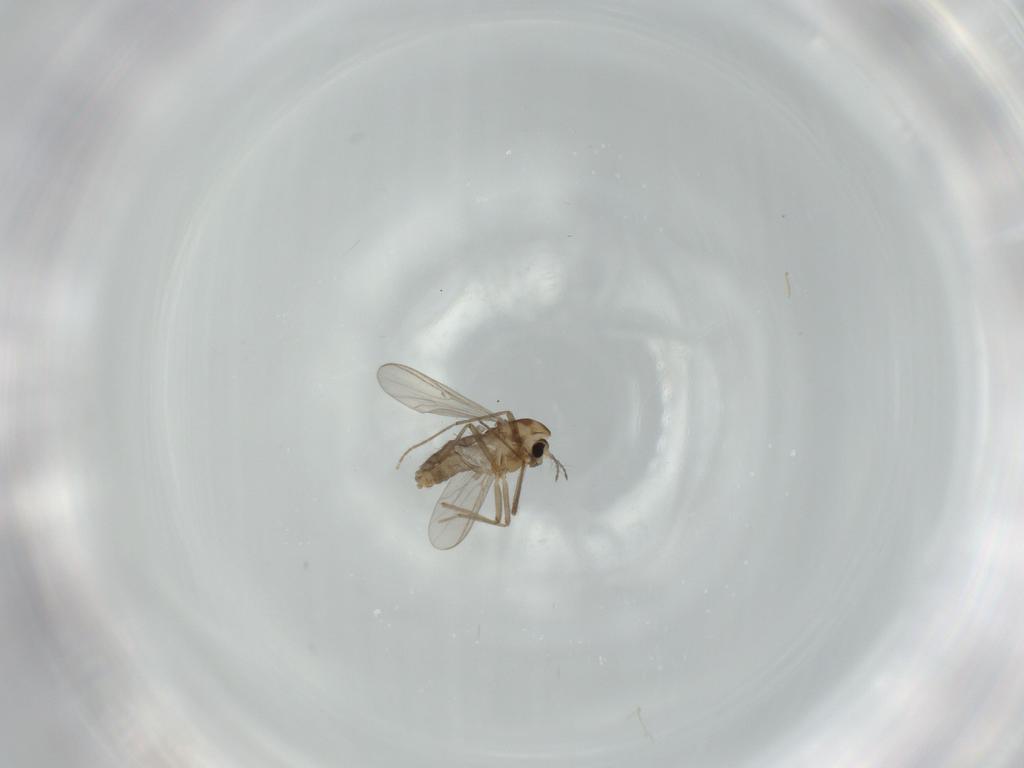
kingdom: Animalia
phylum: Arthropoda
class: Insecta
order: Diptera
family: Chironomidae
